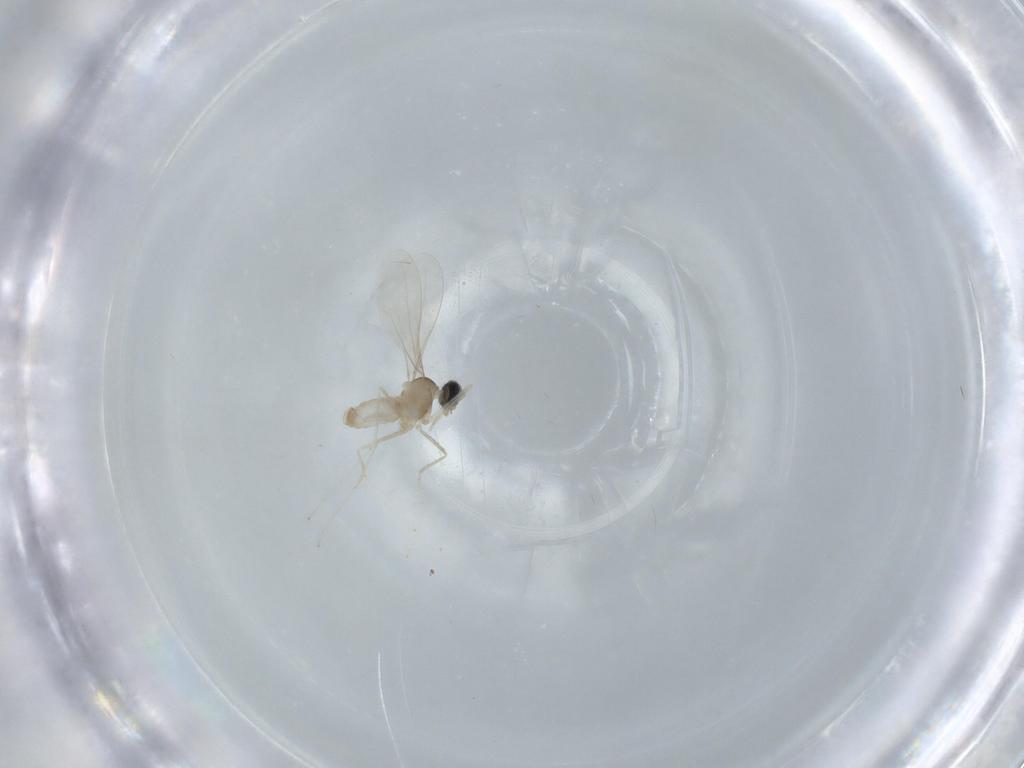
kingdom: Animalia
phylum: Arthropoda
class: Insecta
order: Diptera
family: Cecidomyiidae
